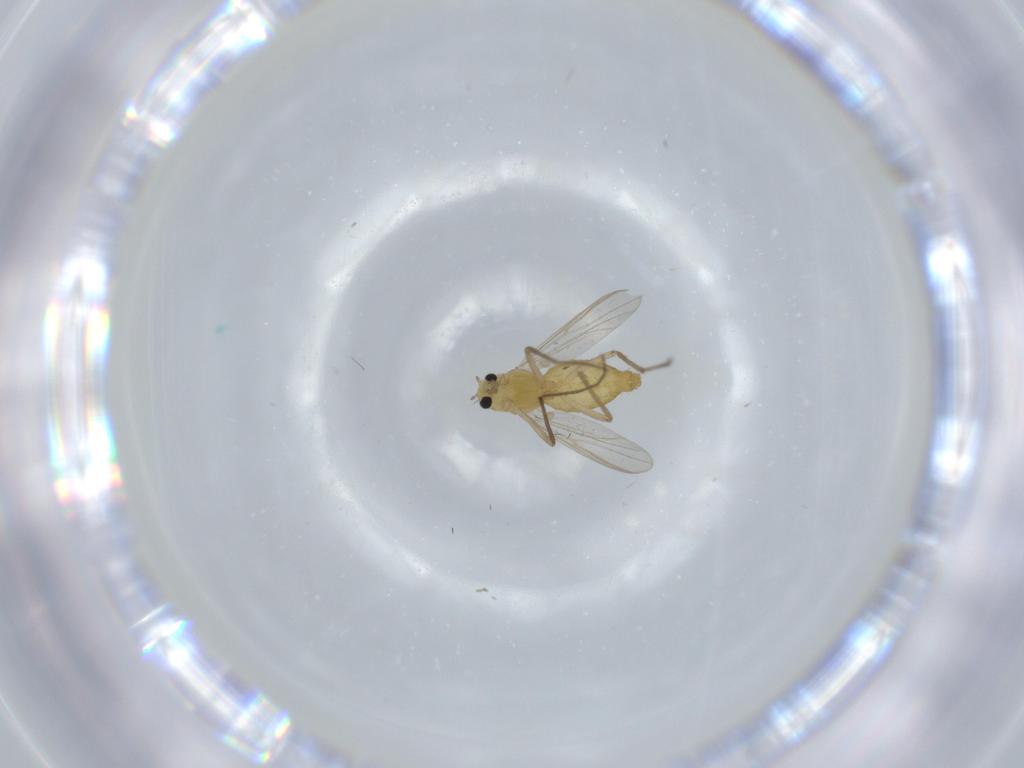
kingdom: Animalia
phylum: Arthropoda
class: Insecta
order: Diptera
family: Chironomidae
